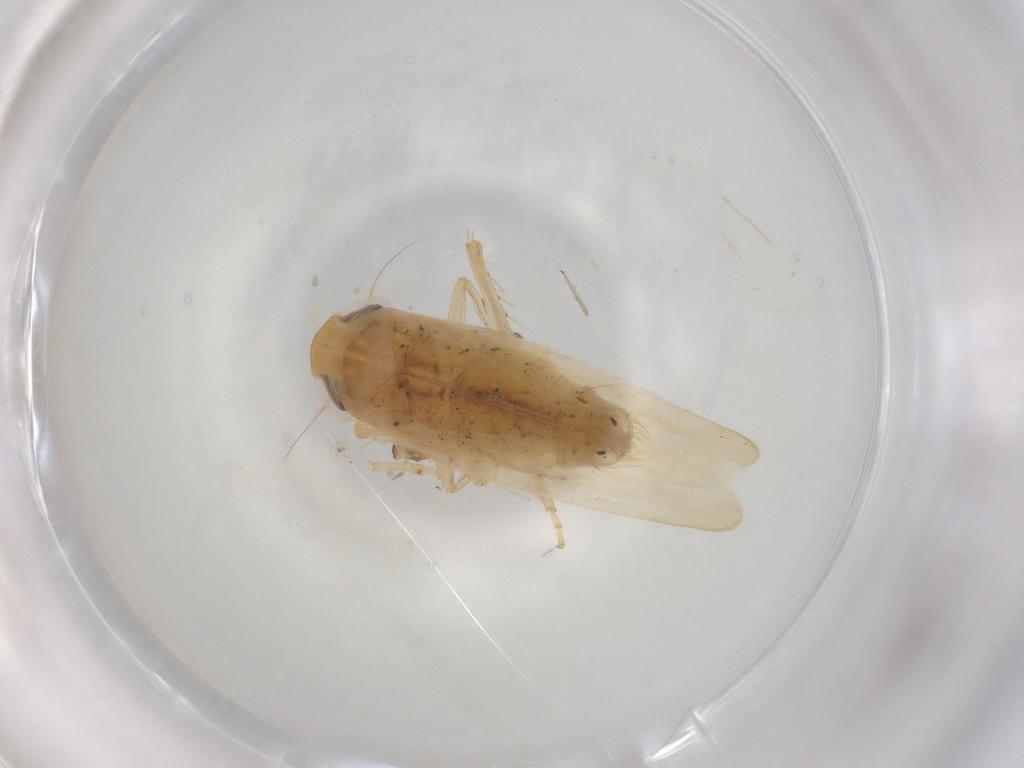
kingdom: Animalia
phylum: Arthropoda
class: Insecta
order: Hemiptera
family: Cicadellidae
